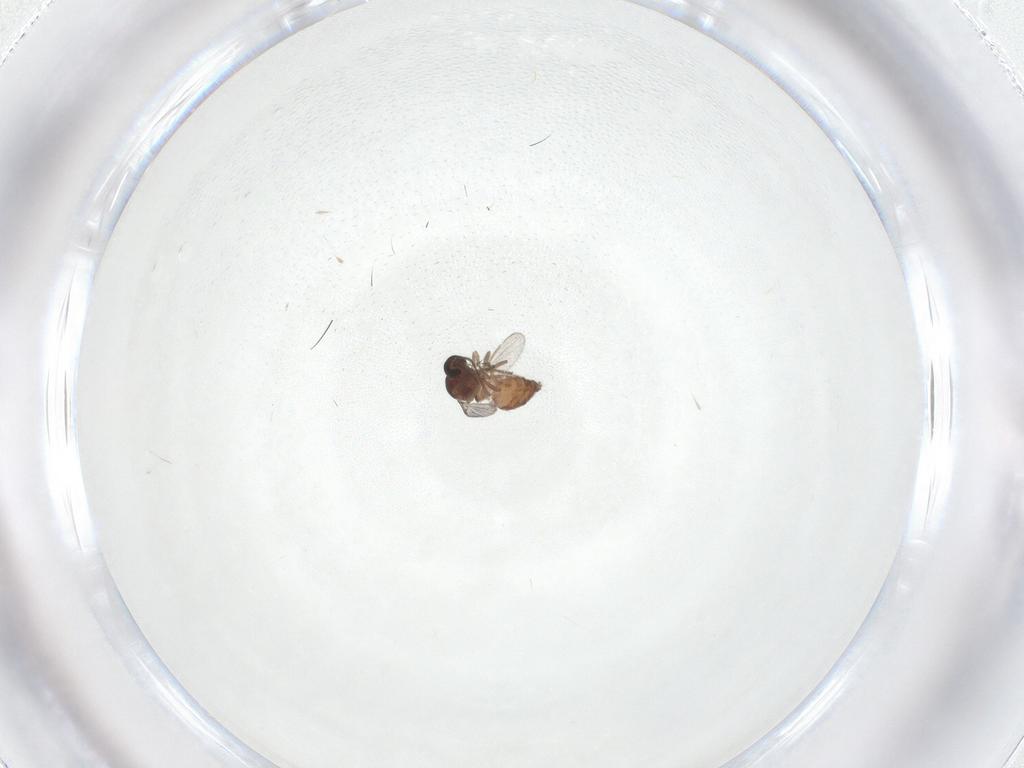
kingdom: Animalia
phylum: Arthropoda
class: Insecta
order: Diptera
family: Ceratopogonidae
